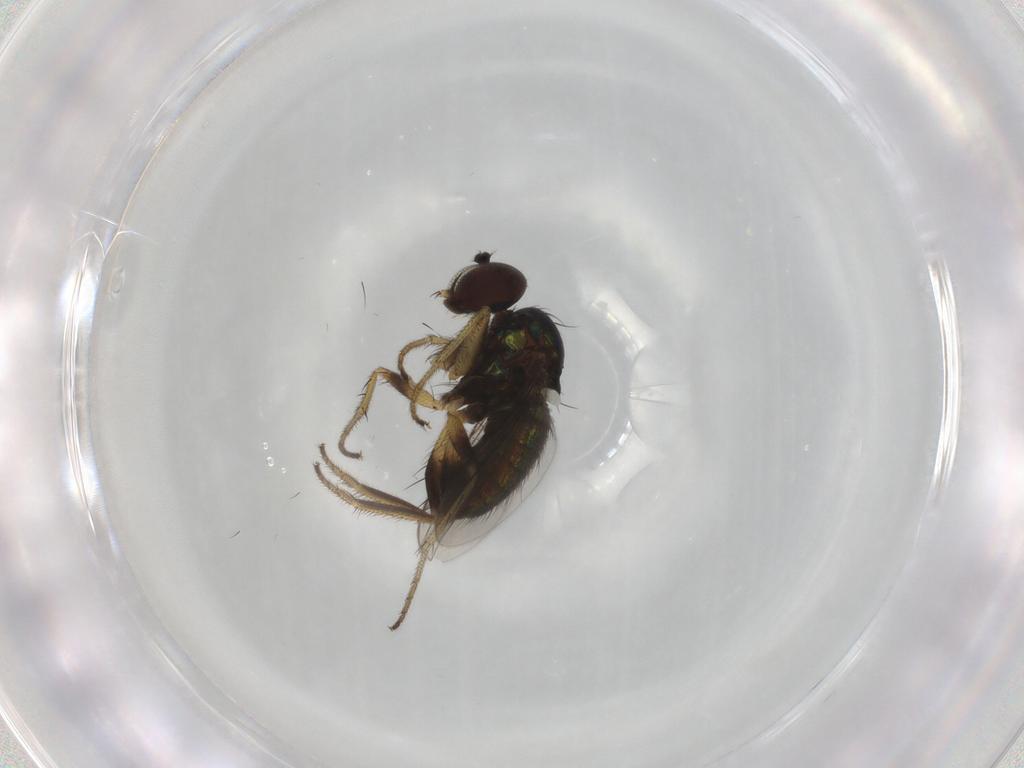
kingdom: Animalia
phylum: Arthropoda
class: Insecta
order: Diptera
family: Dolichopodidae
